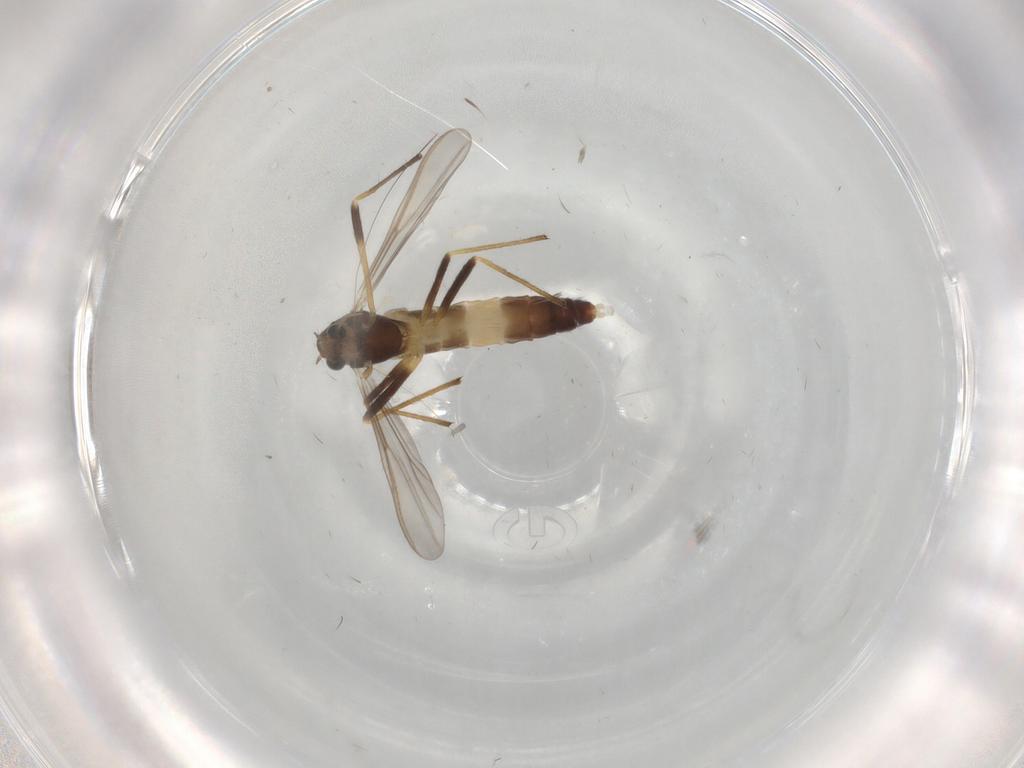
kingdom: Animalia
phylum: Arthropoda
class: Insecta
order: Diptera
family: Cecidomyiidae
